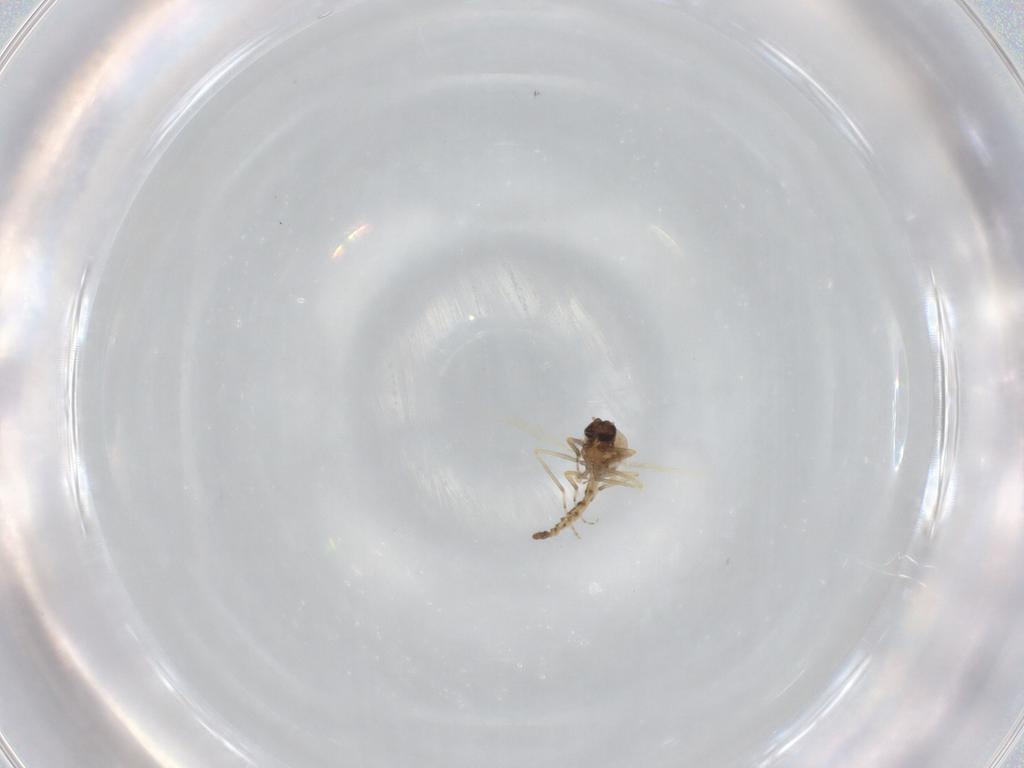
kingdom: Animalia
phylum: Arthropoda
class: Insecta
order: Diptera
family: Ceratopogonidae
